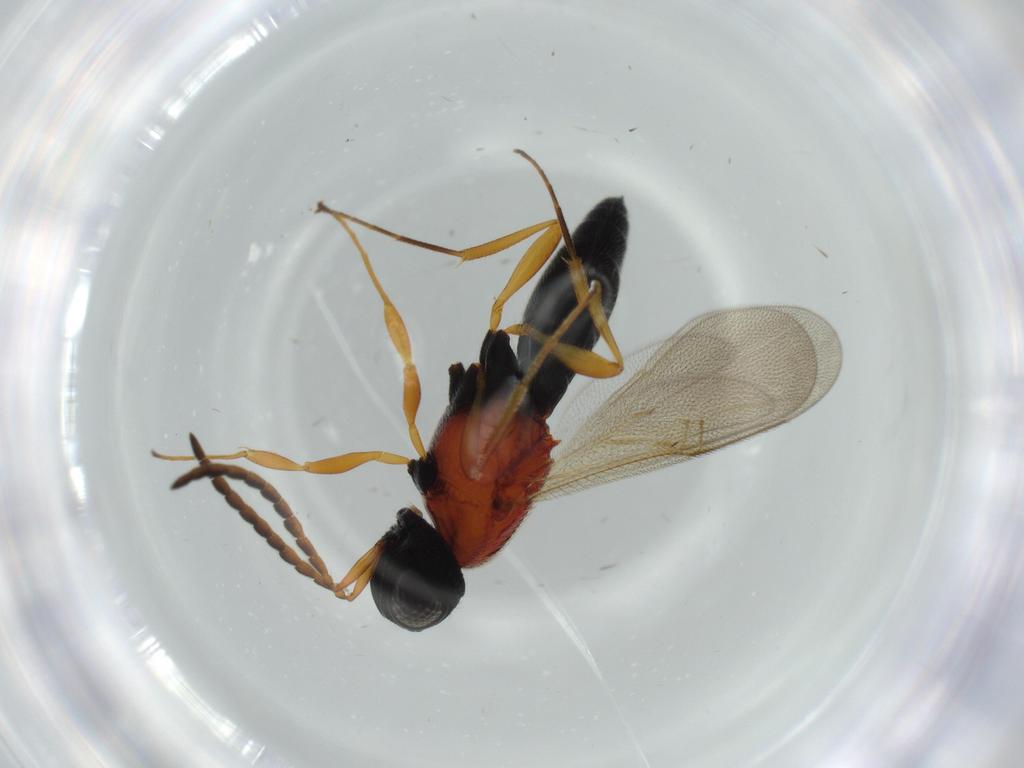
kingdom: Animalia
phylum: Arthropoda
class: Insecta
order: Hymenoptera
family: Scelionidae
